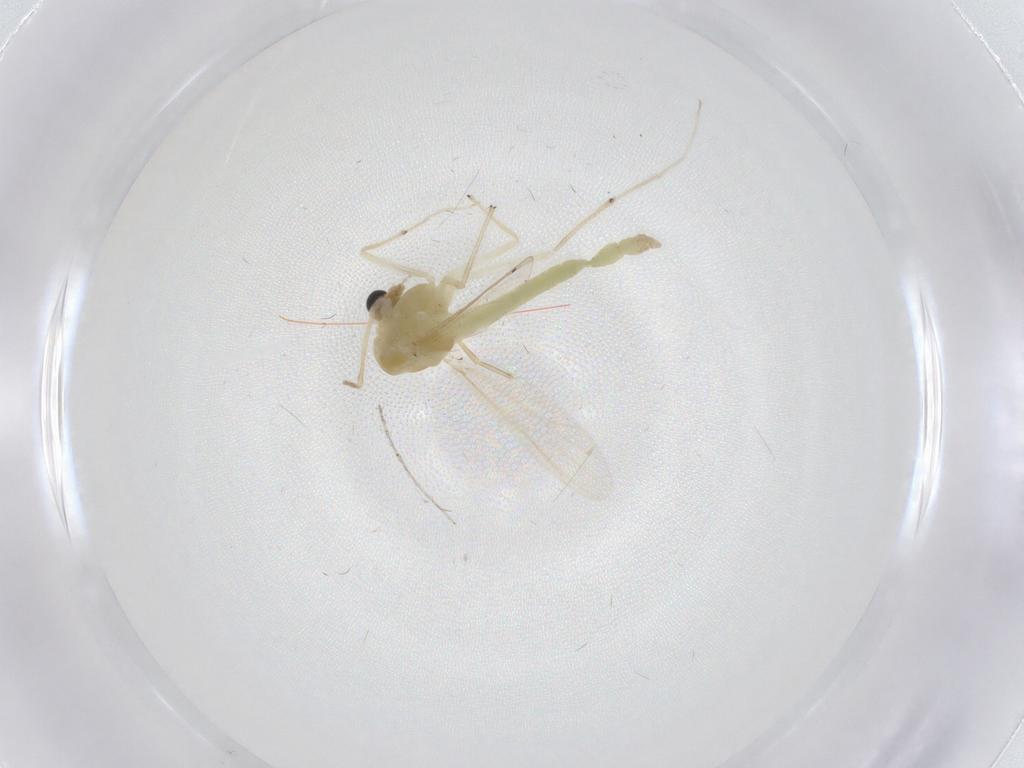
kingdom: Animalia
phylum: Arthropoda
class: Insecta
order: Diptera
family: Chironomidae
